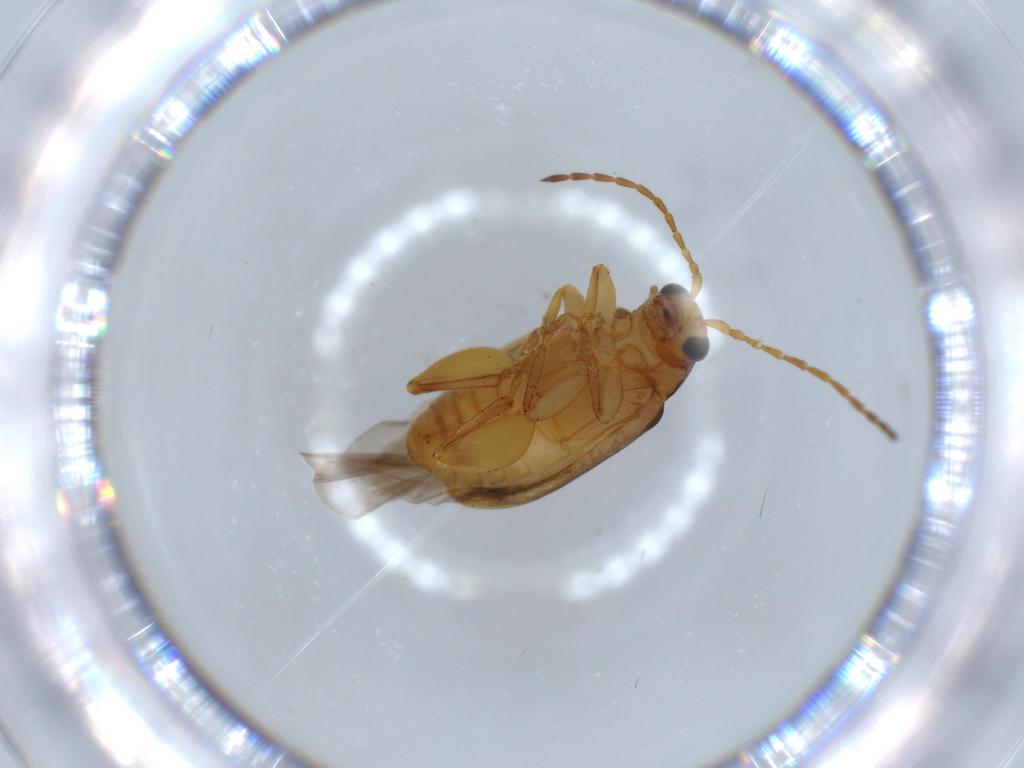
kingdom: Animalia
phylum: Arthropoda
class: Insecta
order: Coleoptera
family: Chrysomelidae
